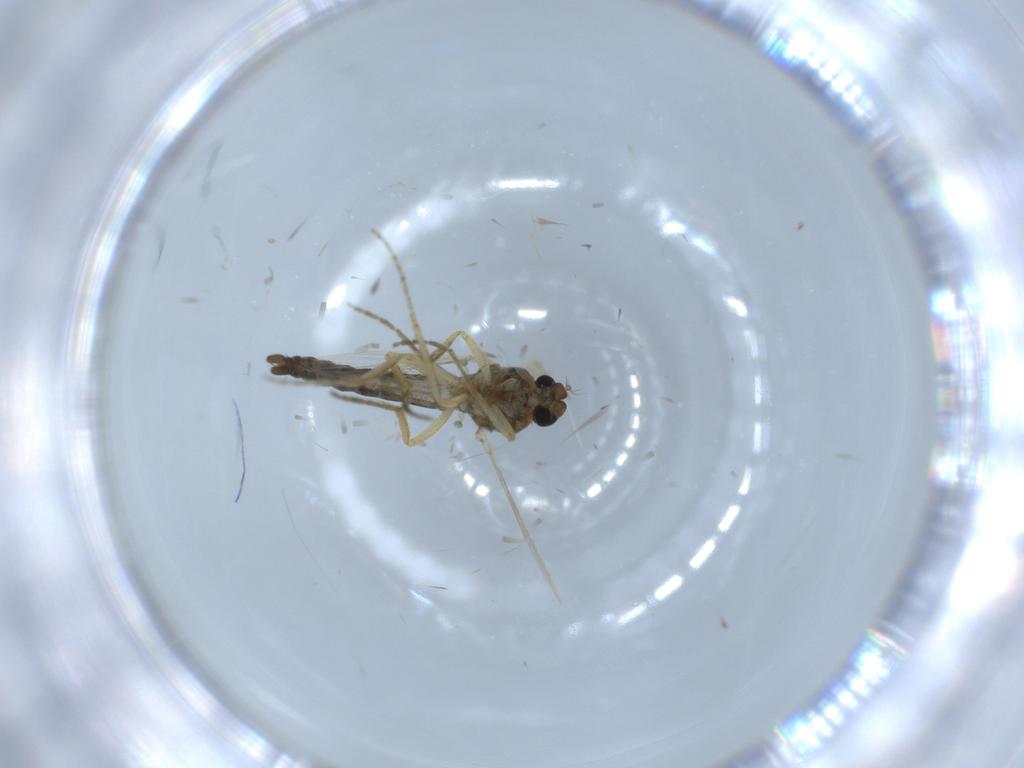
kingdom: Animalia
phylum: Arthropoda
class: Insecta
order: Diptera
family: Ceratopogonidae
